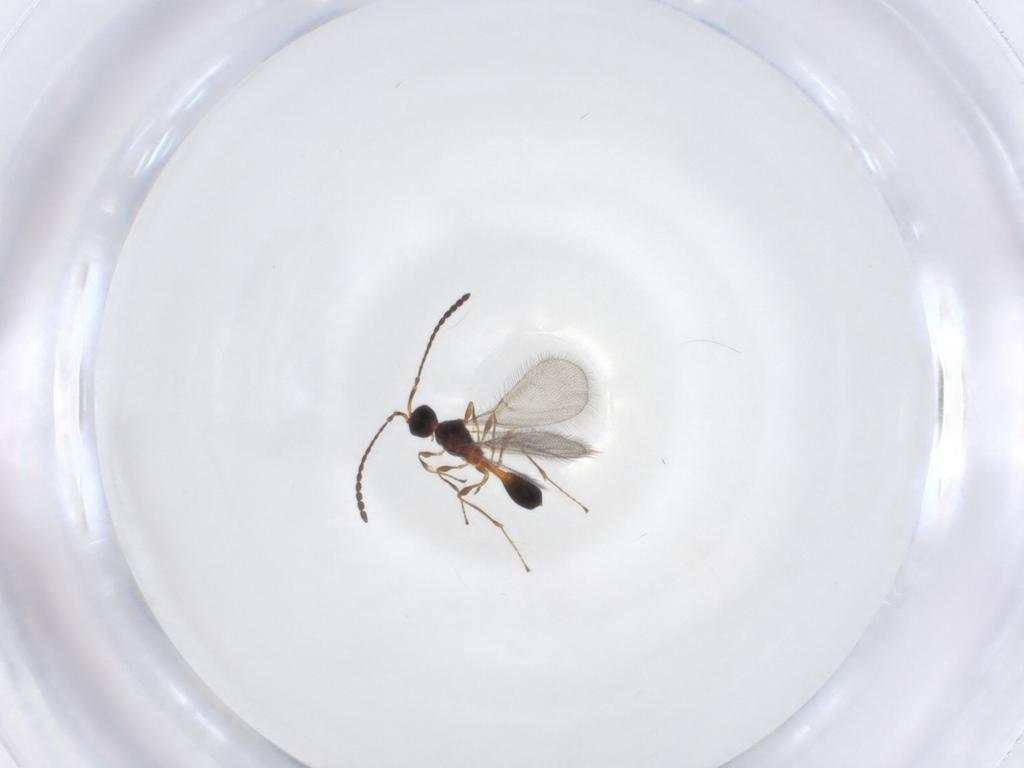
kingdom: Animalia
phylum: Arthropoda
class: Insecta
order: Hymenoptera
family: Diapriidae
